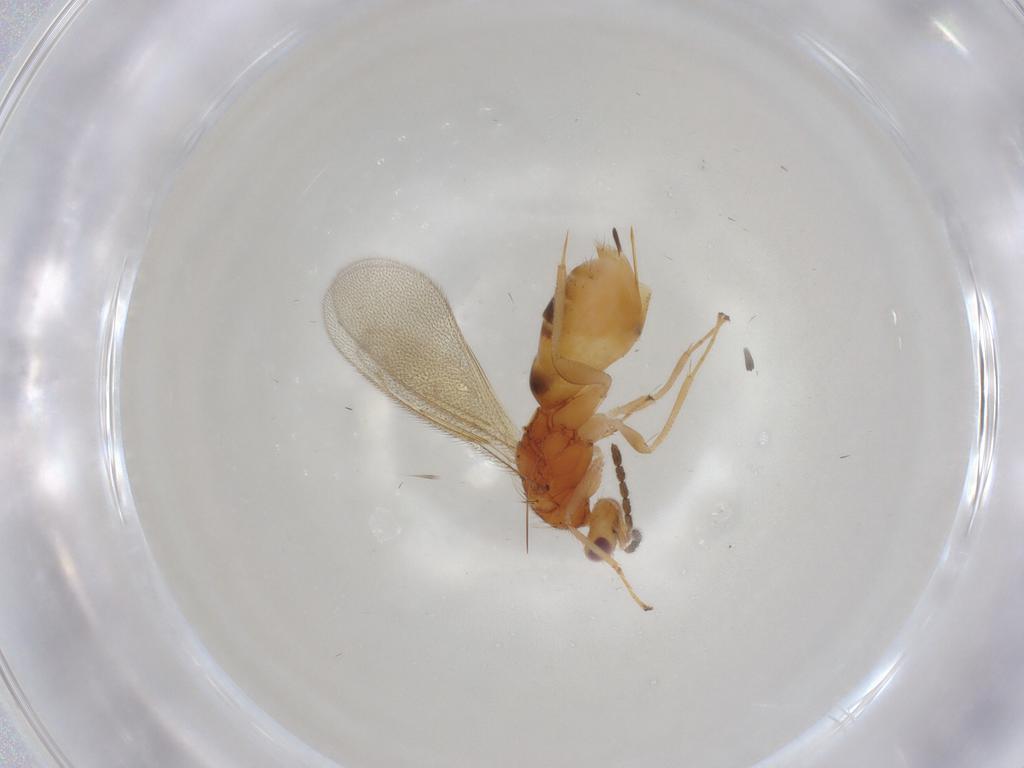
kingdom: Animalia
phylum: Arthropoda
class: Insecta
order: Hymenoptera
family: Eulophidae
